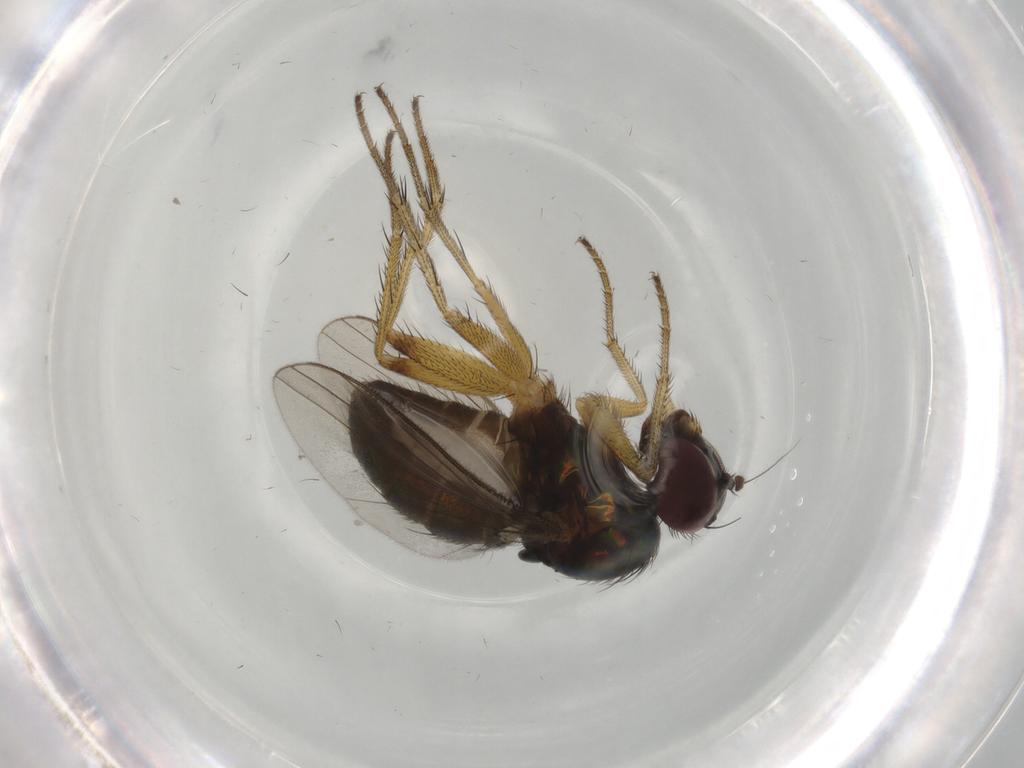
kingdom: Animalia
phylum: Arthropoda
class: Insecta
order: Diptera
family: Dolichopodidae
